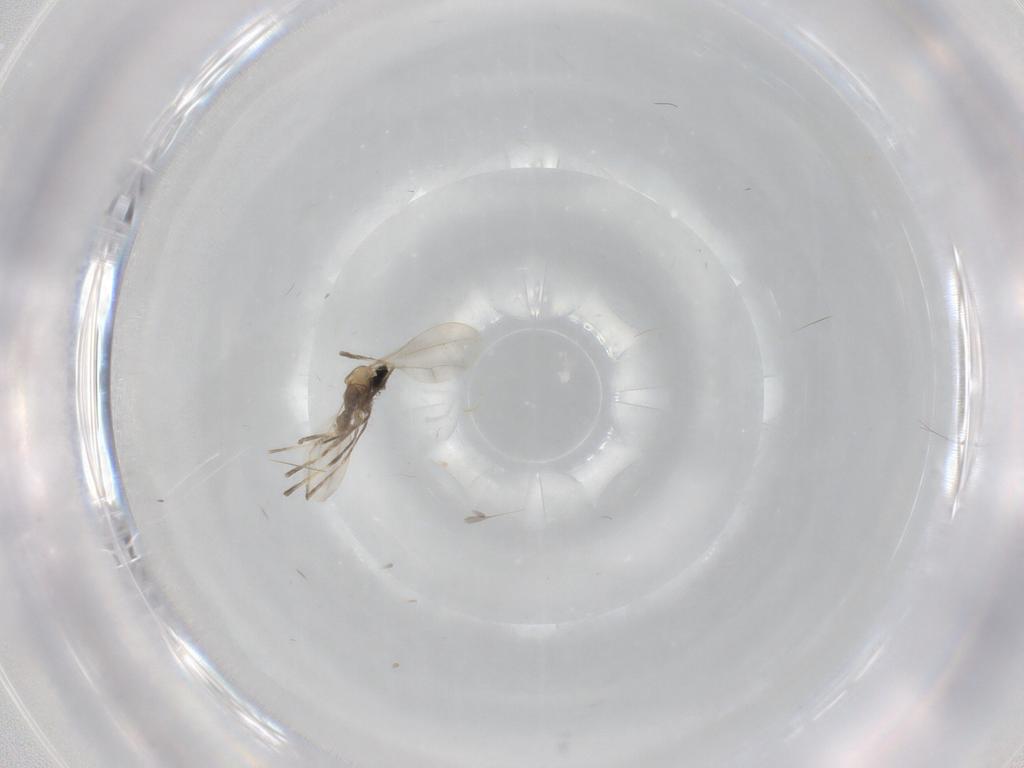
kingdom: Animalia
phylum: Arthropoda
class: Insecta
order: Diptera
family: Cecidomyiidae
